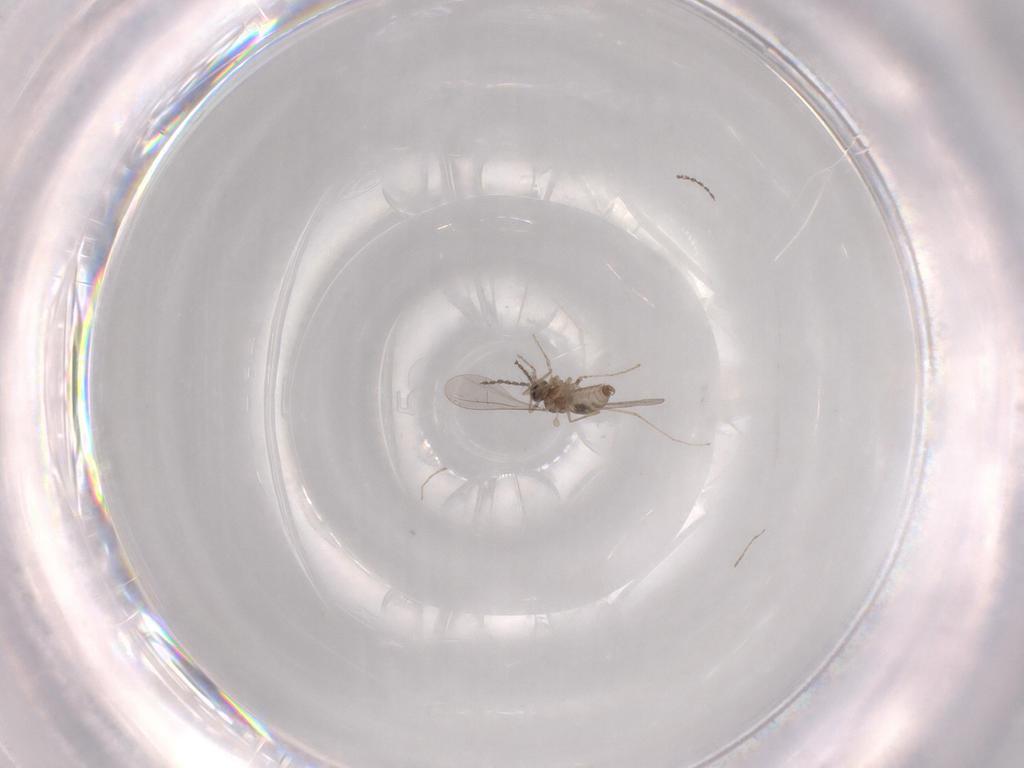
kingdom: Animalia
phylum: Arthropoda
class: Insecta
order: Diptera
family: Chironomidae
